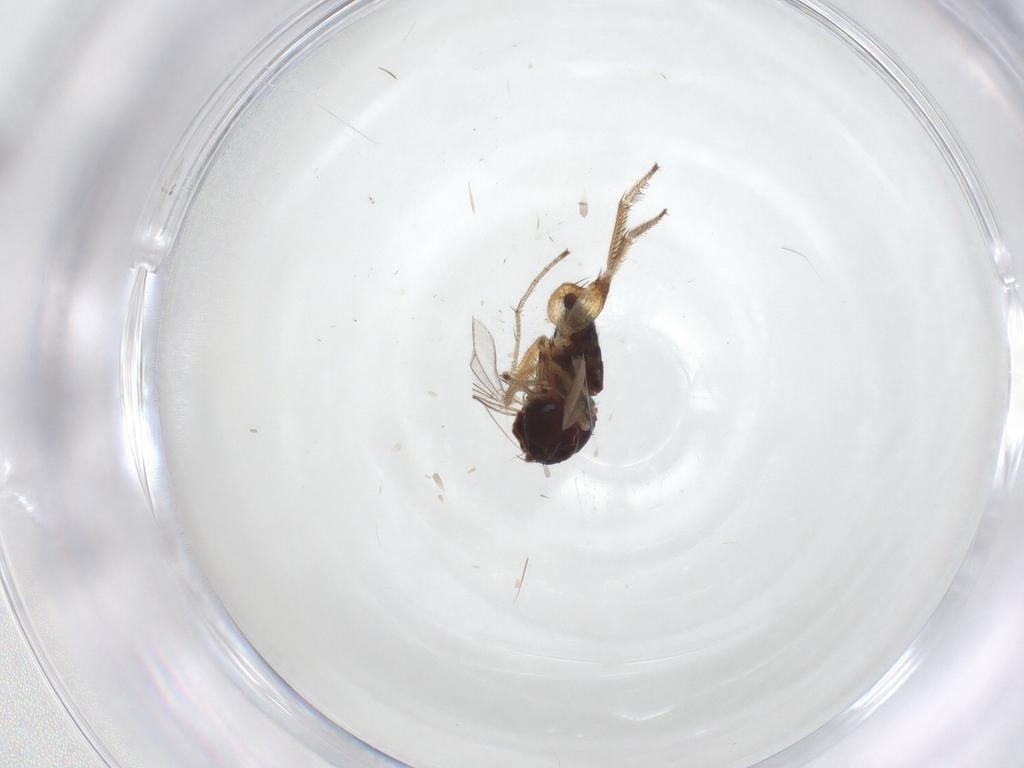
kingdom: Animalia
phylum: Arthropoda
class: Insecta
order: Diptera
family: Dolichopodidae
